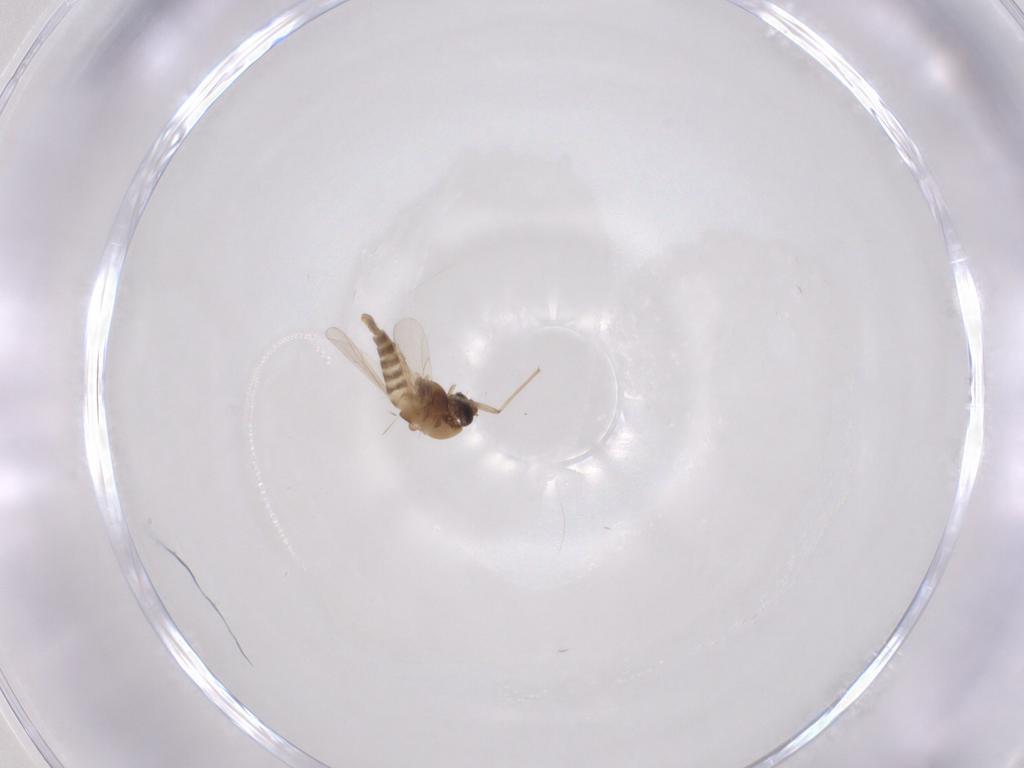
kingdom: Animalia
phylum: Arthropoda
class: Insecta
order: Diptera
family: Chironomidae
